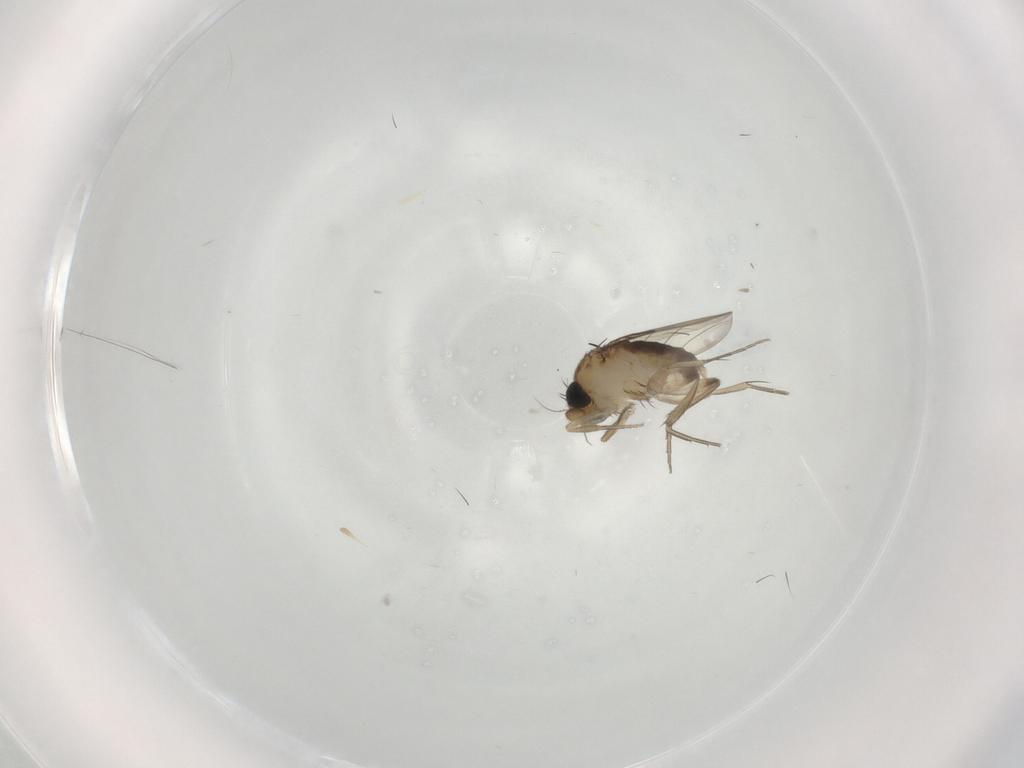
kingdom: Animalia
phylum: Arthropoda
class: Insecta
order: Diptera
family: Phoridae
